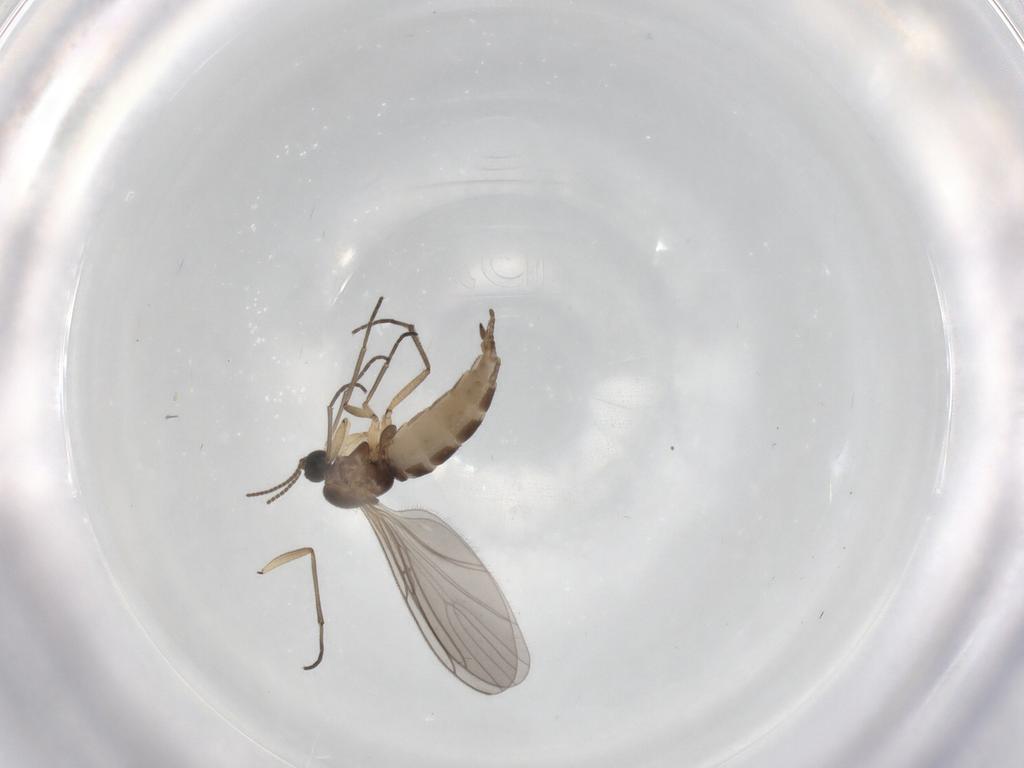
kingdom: Animalia
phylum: Arthropoda
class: Insecta
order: Diptera
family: Sciaridae
